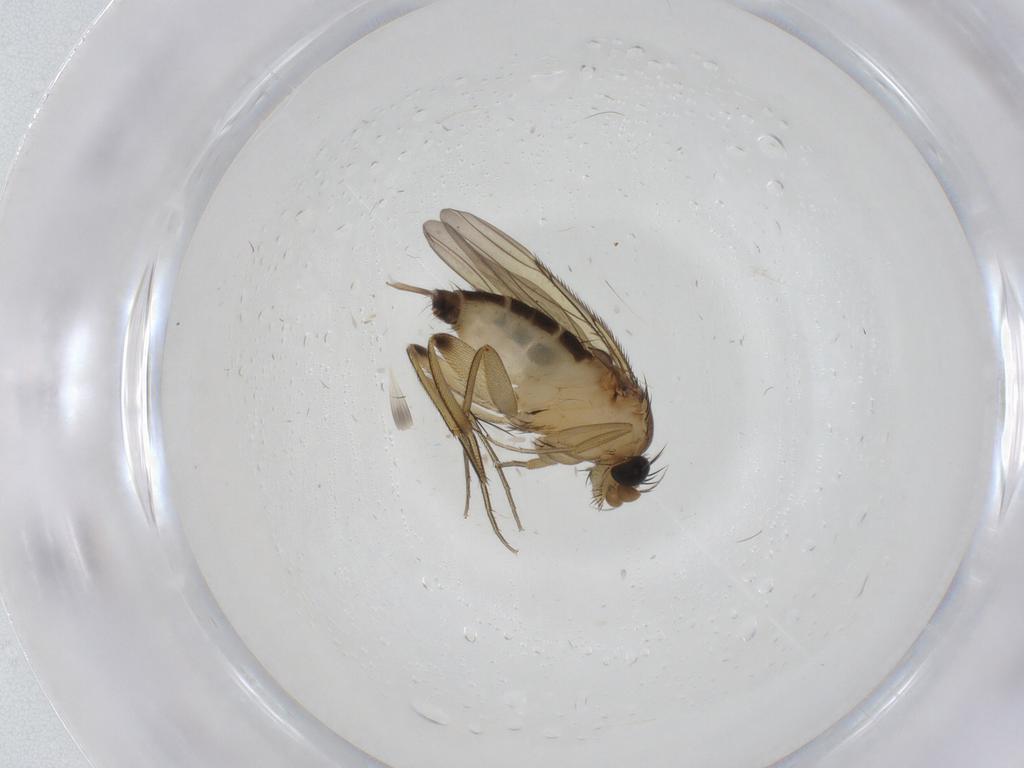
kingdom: Animalia
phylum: Arthropoda
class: Insecta
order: Diptera
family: Phoridae
